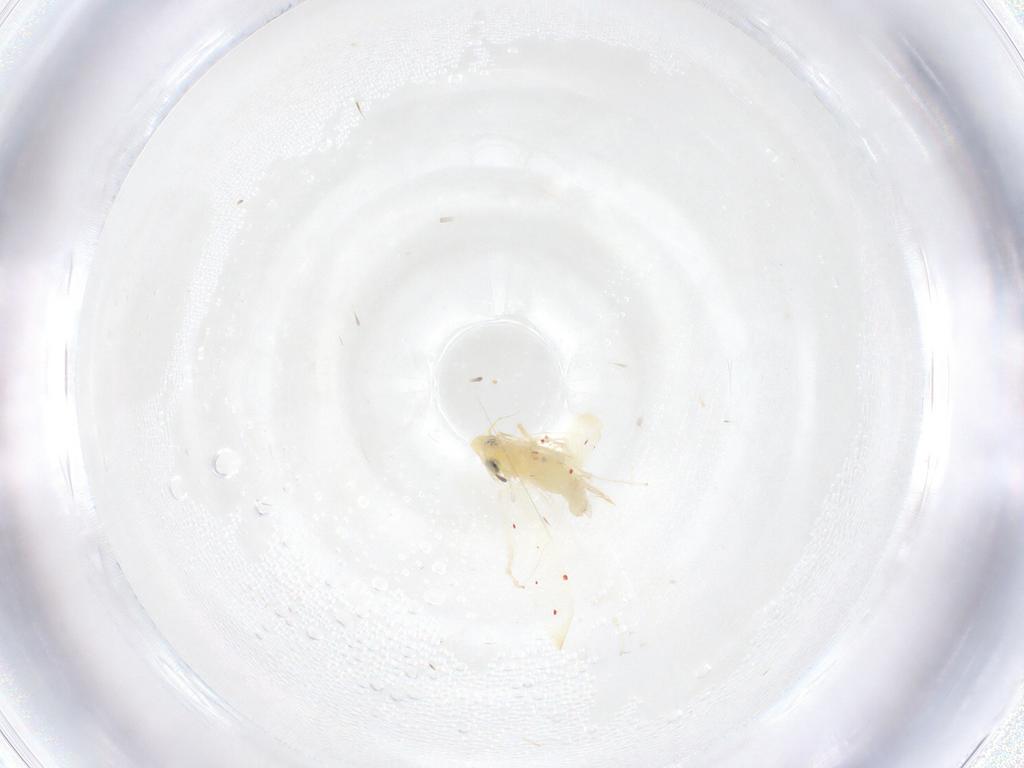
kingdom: Animalia
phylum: Arthropoda
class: Insecta
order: Hemiptera
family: Cicadellidae
